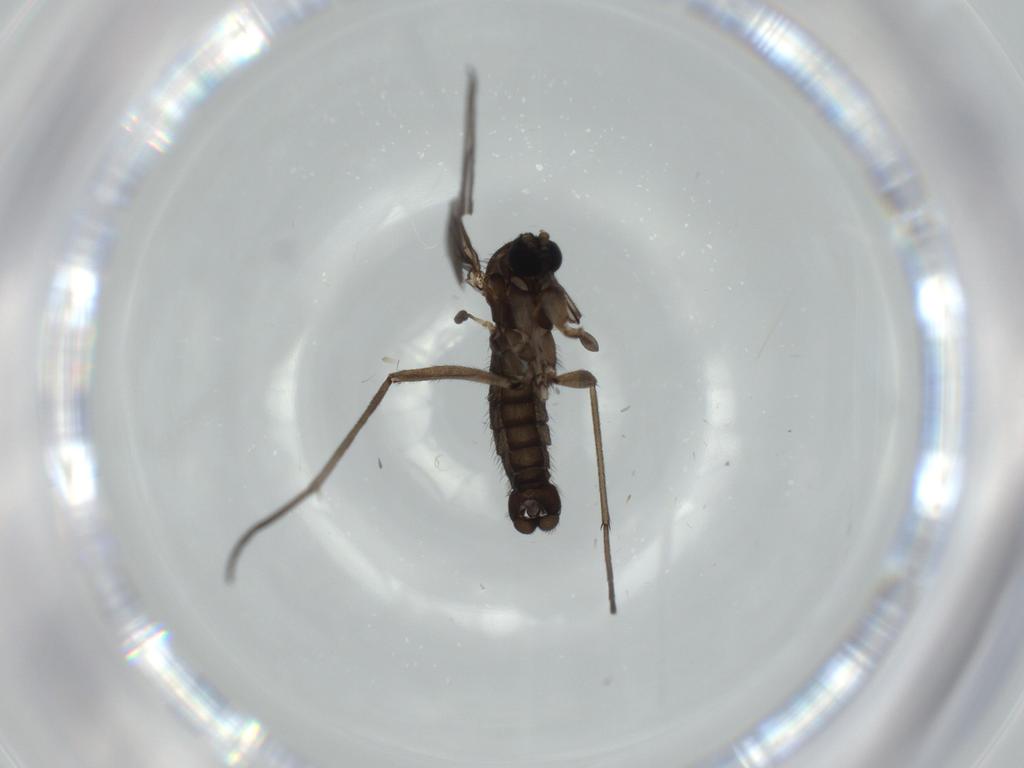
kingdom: Animalia
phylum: Arthropoda
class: Insecta
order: Diptera
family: Sciaridae
